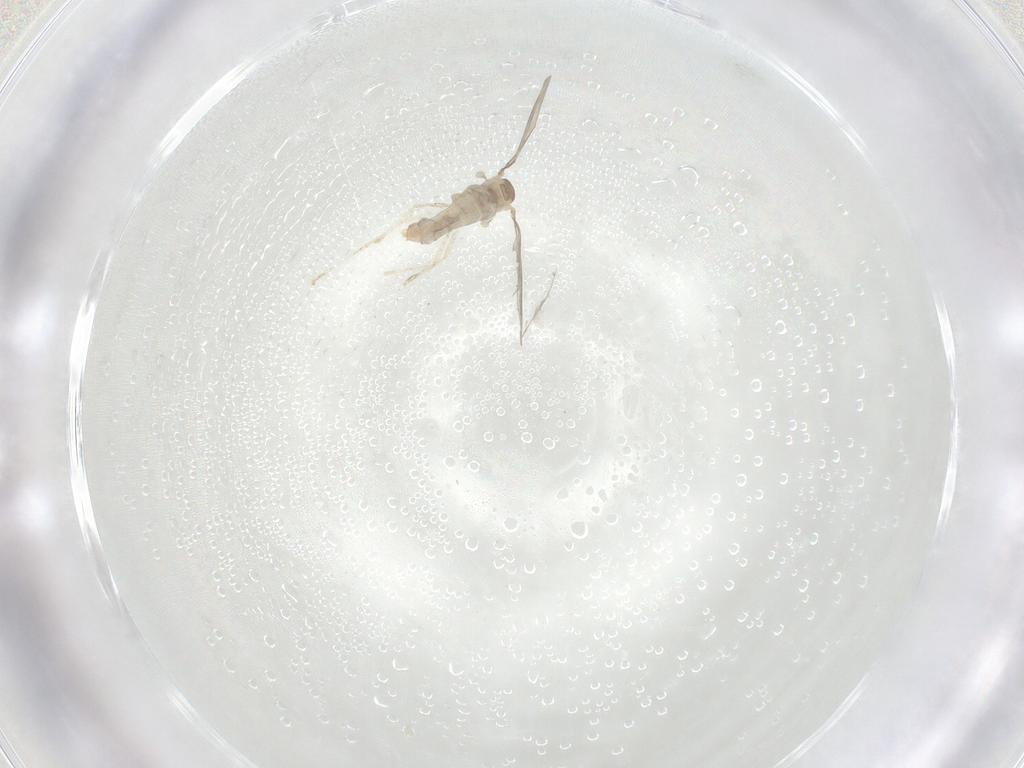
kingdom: Animalia
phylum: Arthropoda
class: Insecta
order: Diptera
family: Cecidomyiidae
